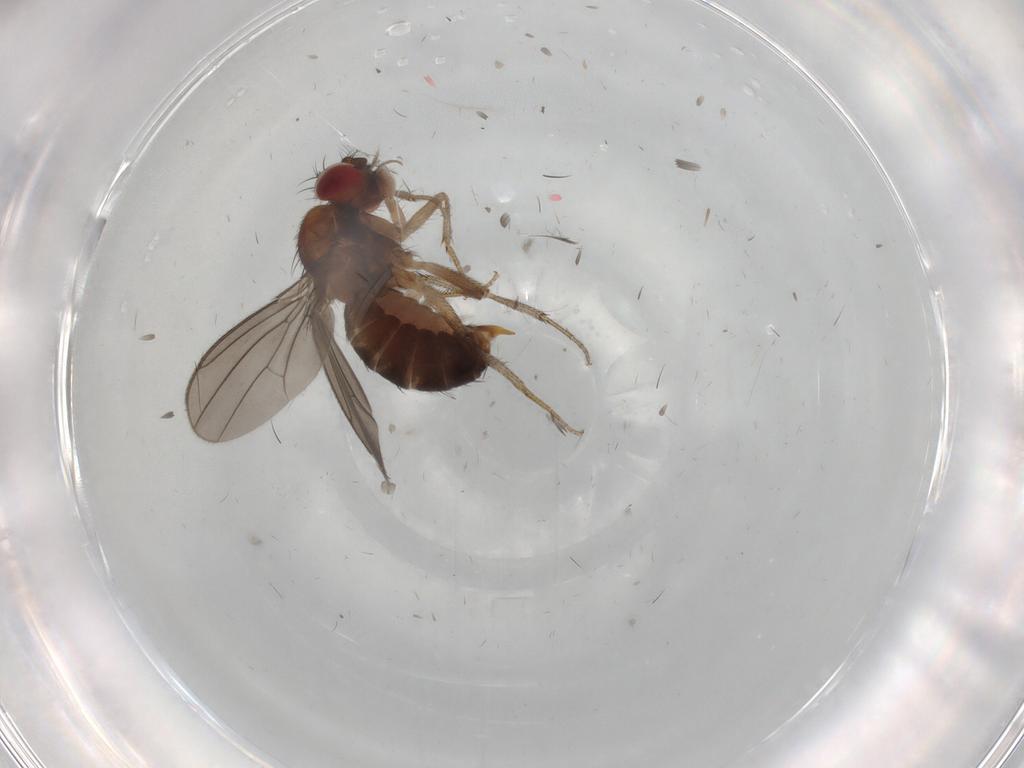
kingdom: Animalia
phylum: Arthropoda
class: Insecta
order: Diptera
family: Cecidomyiidae
